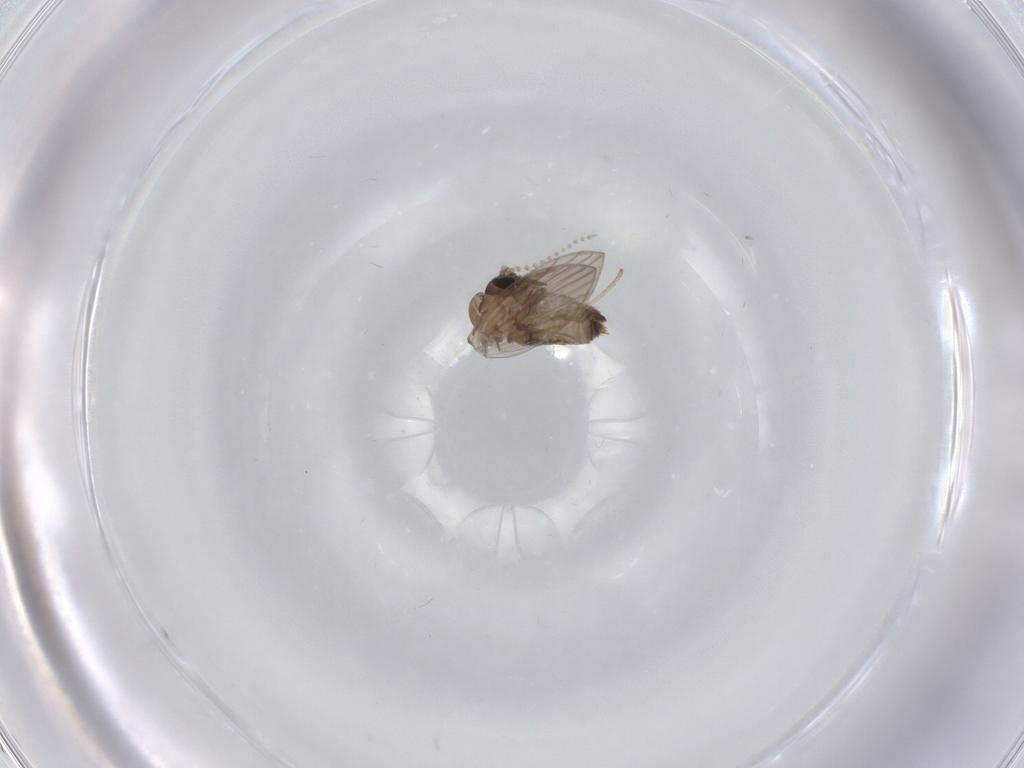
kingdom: Animalia
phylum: Arthropoda
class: Insecta
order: Diptera
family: Psychodidae
